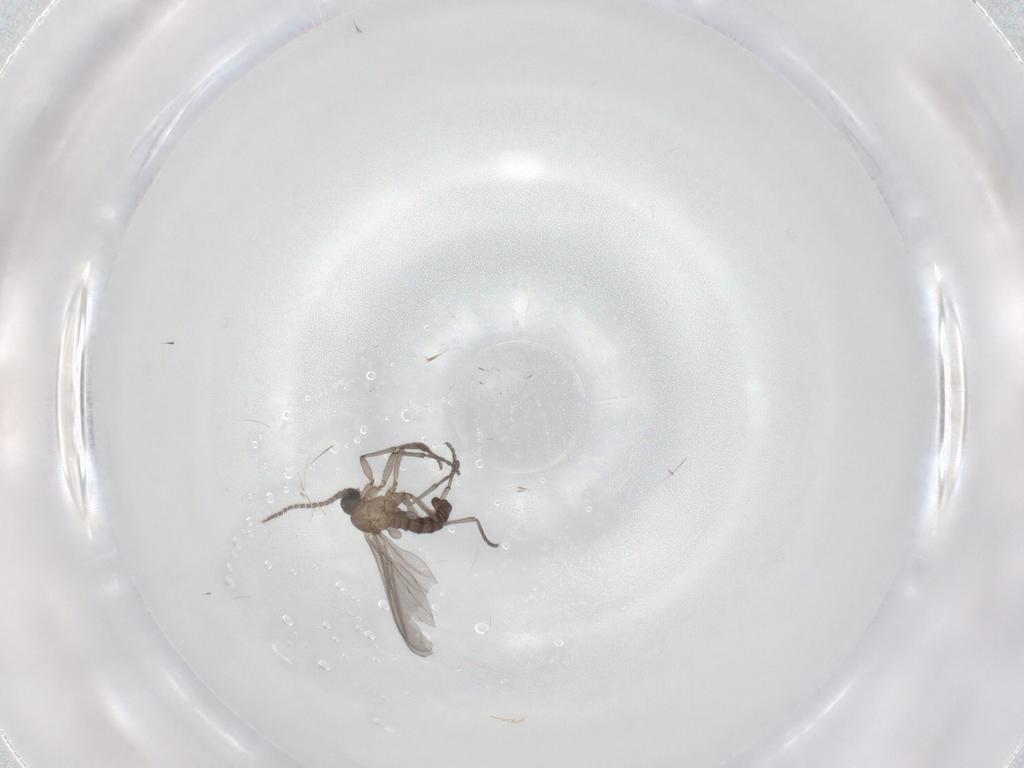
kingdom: Animalia
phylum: Arthropoda
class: Insecta
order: Diptera
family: Sciaridae
